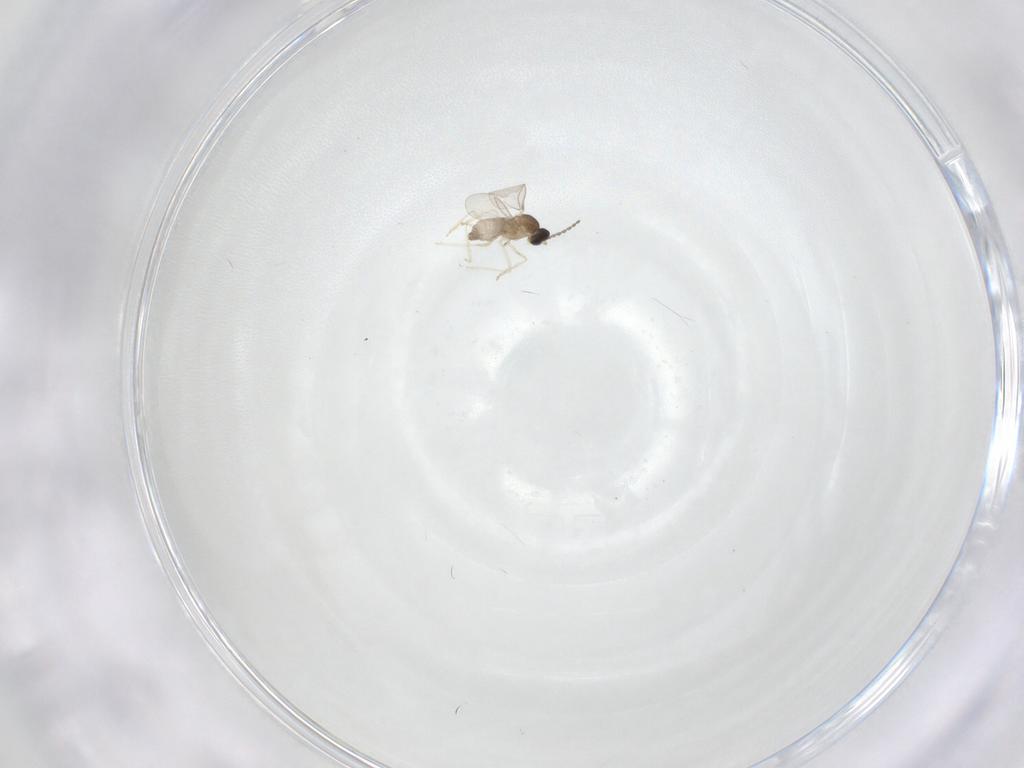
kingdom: Animalia
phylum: Arthropoda
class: Insecta
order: Diptera
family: Cecidomyiidae
